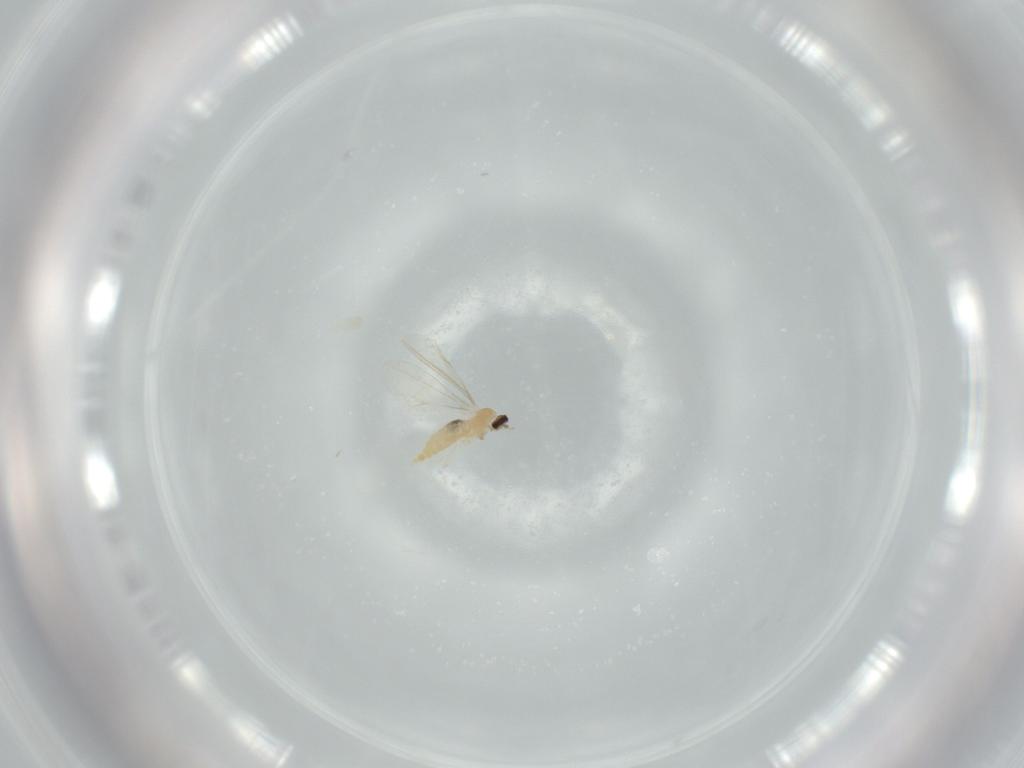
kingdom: Animalia
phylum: Arthropoda
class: Insecta
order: Diptera
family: Cecidomyiidae
